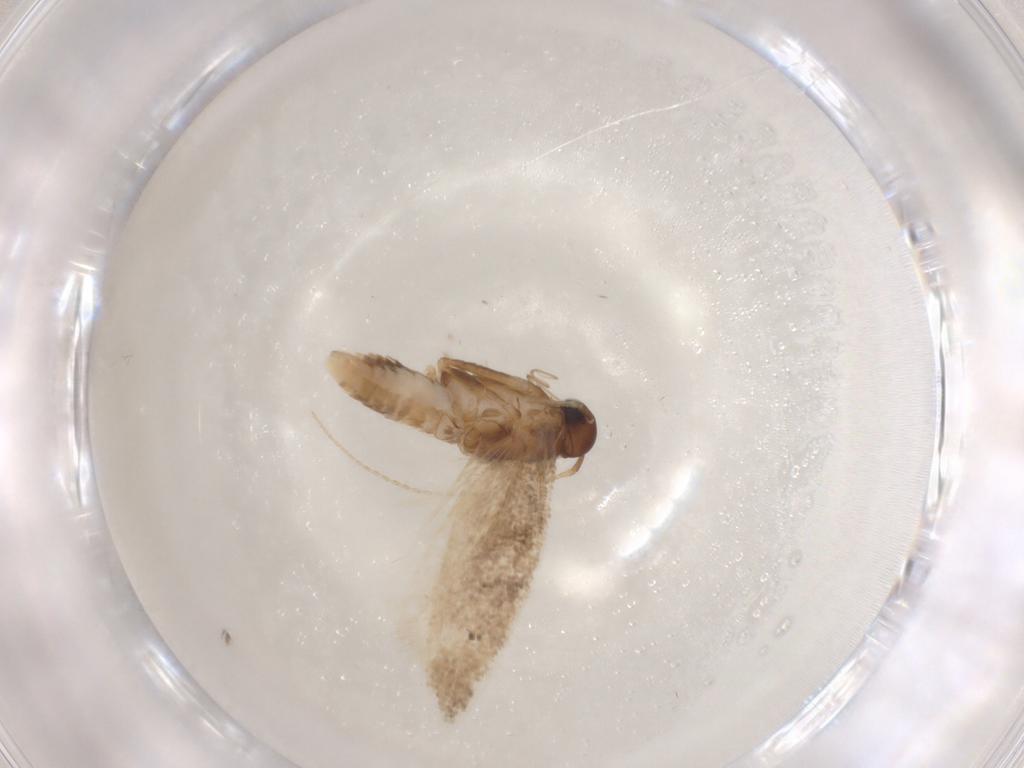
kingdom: Animalia
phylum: Arthropoda
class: Insecta
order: Lepidoptera
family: Gelechiidae
